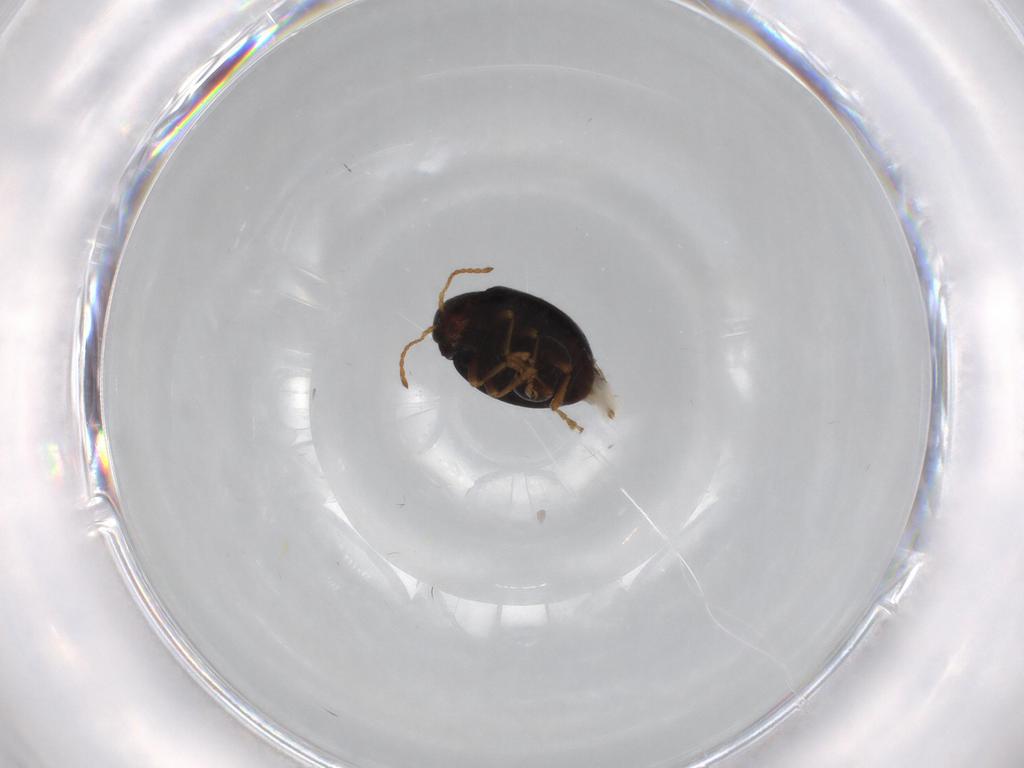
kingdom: Animalia
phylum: Arthropoda
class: Insecta
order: Coleoptera
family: Chrysomelidae
